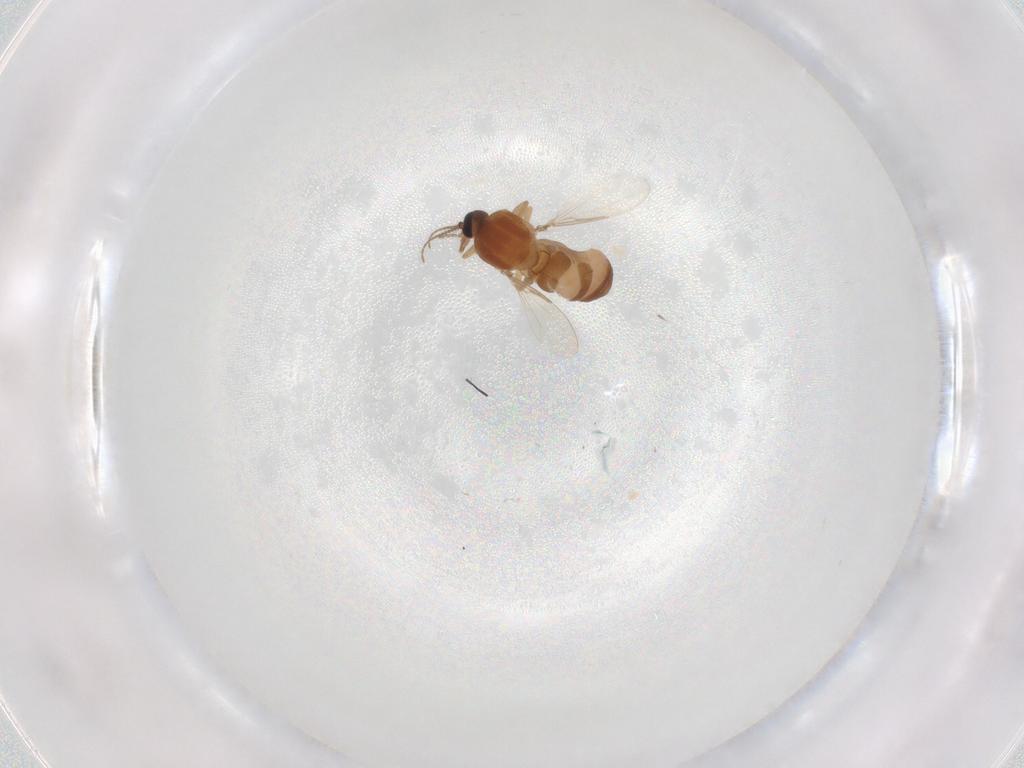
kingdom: Animalia
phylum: Arthropoda
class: Insecta
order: Diptera
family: Ceratopogonidae
